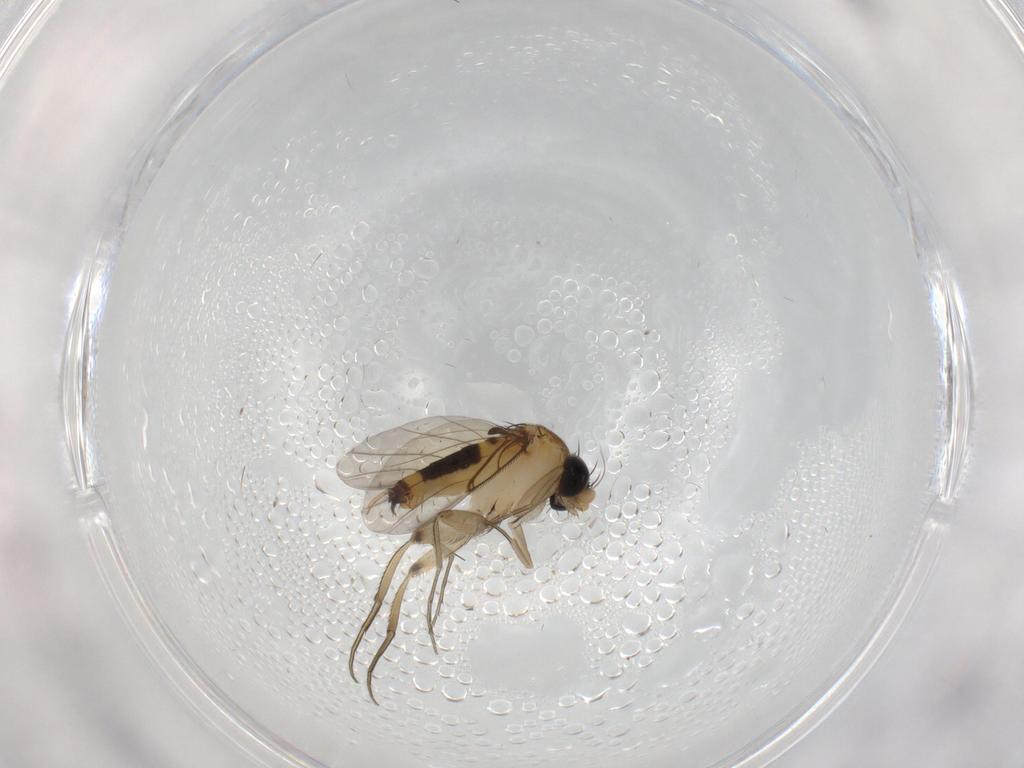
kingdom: Animalia
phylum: Arthropoda
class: Insecta
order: Diptera
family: Phoridae
